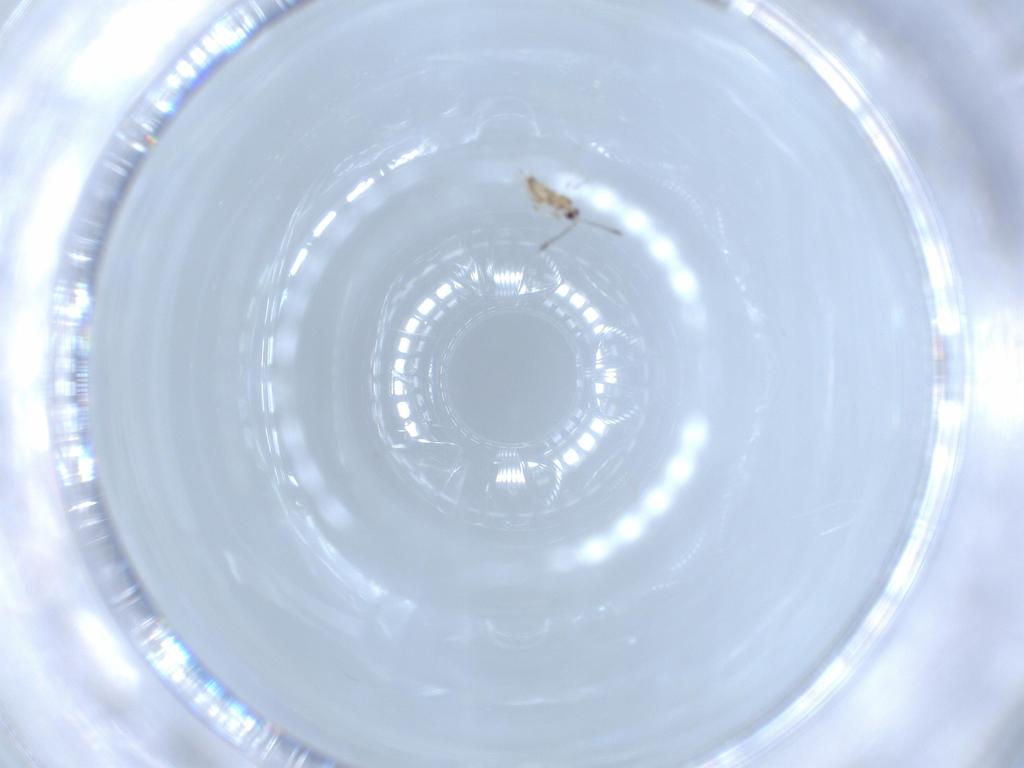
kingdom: Animalia
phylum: Arthropoda
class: Insecta
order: Hymenoptera
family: Mymaridae
